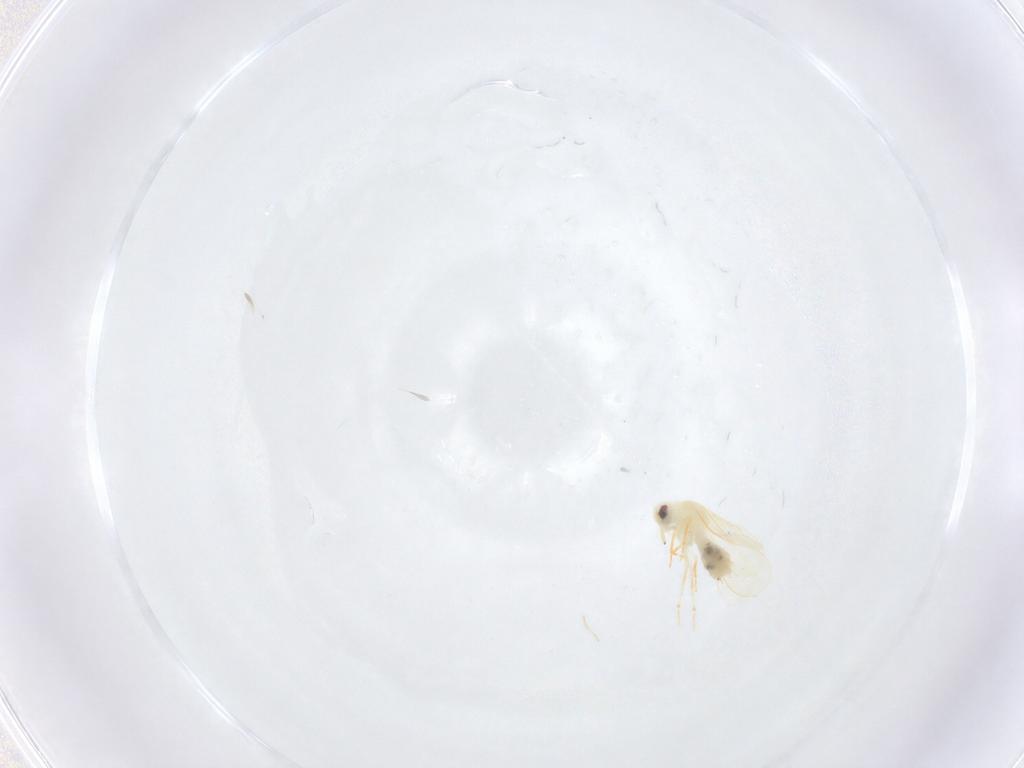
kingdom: Animalia
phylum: Arthropoda
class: Insecta
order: Hemiptera
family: Aleyrodidae
